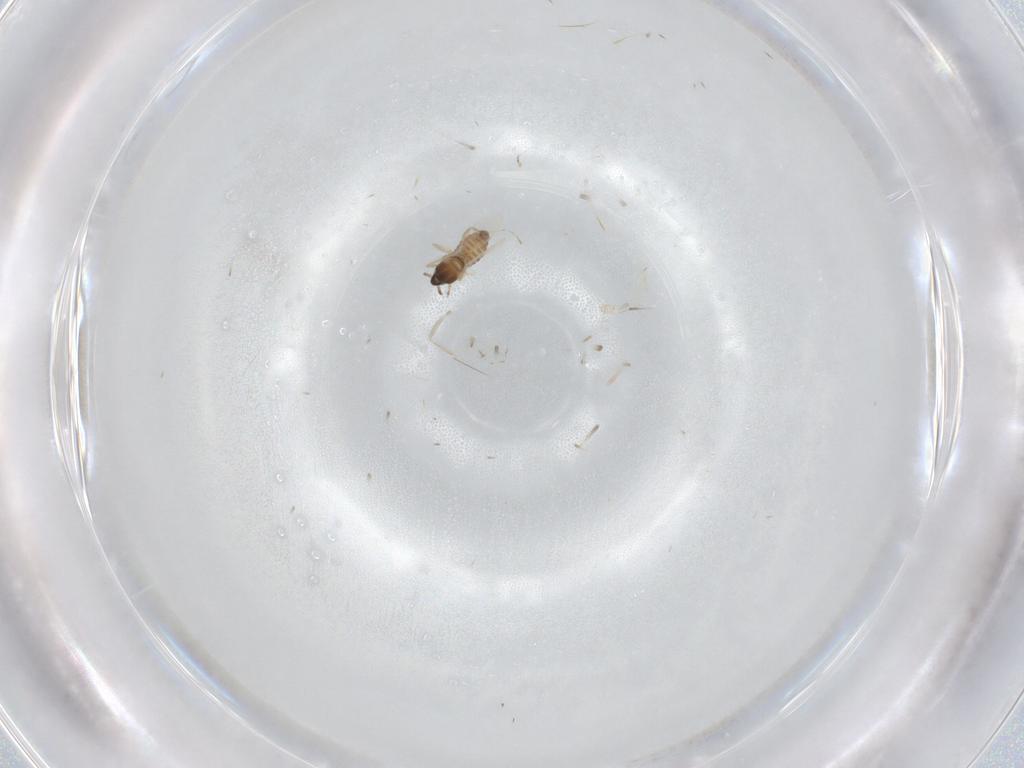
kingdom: Animalia
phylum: Arthropoda
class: Insecta
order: Diptera
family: Cecidomyiidae
